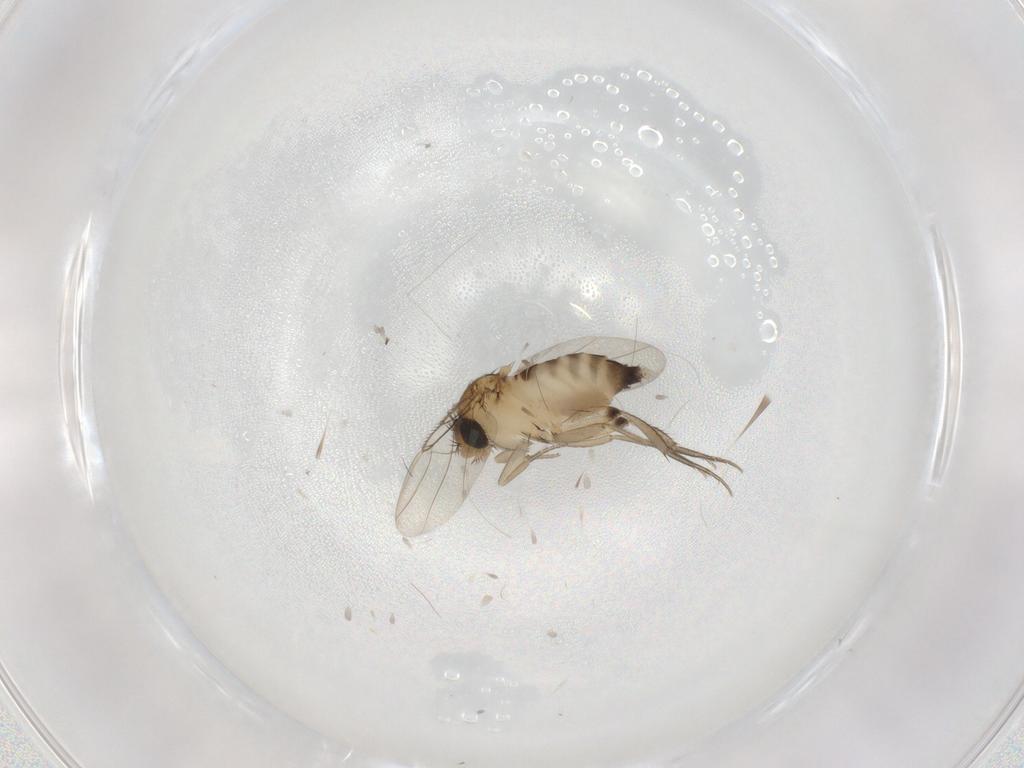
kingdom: Animalia
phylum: Arthropoda
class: Insecta
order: Diptera
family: Phoridae
